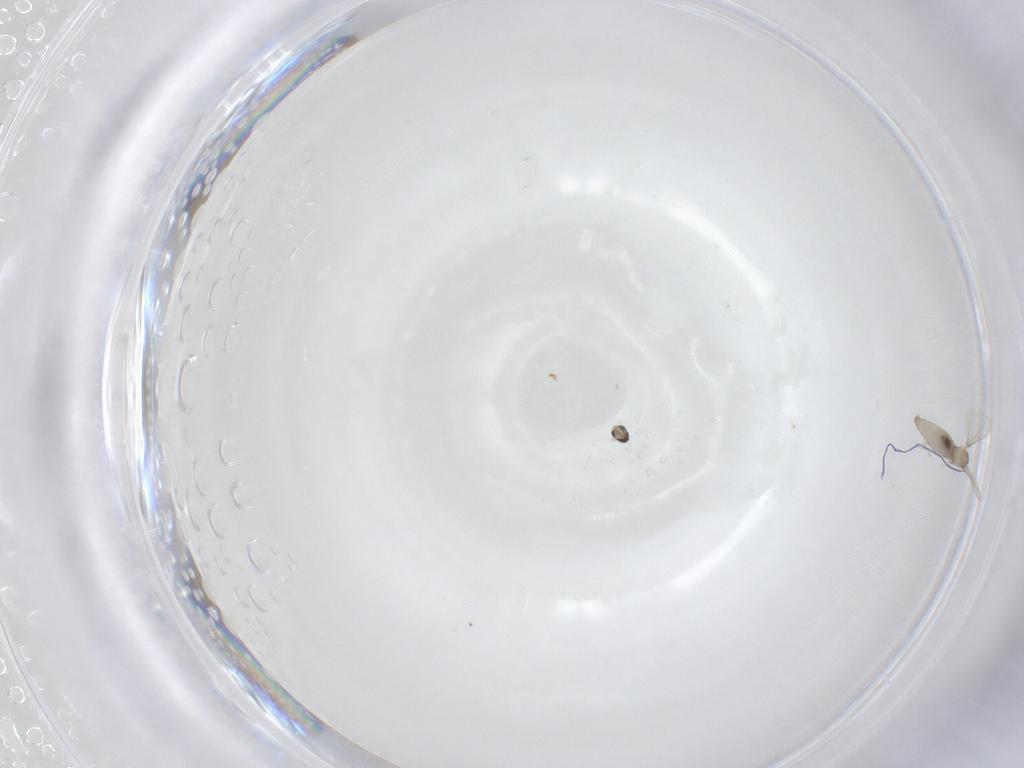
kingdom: Animalia
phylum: Arthropoda
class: Insecta
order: Diptera
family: Cecidomyiidae
